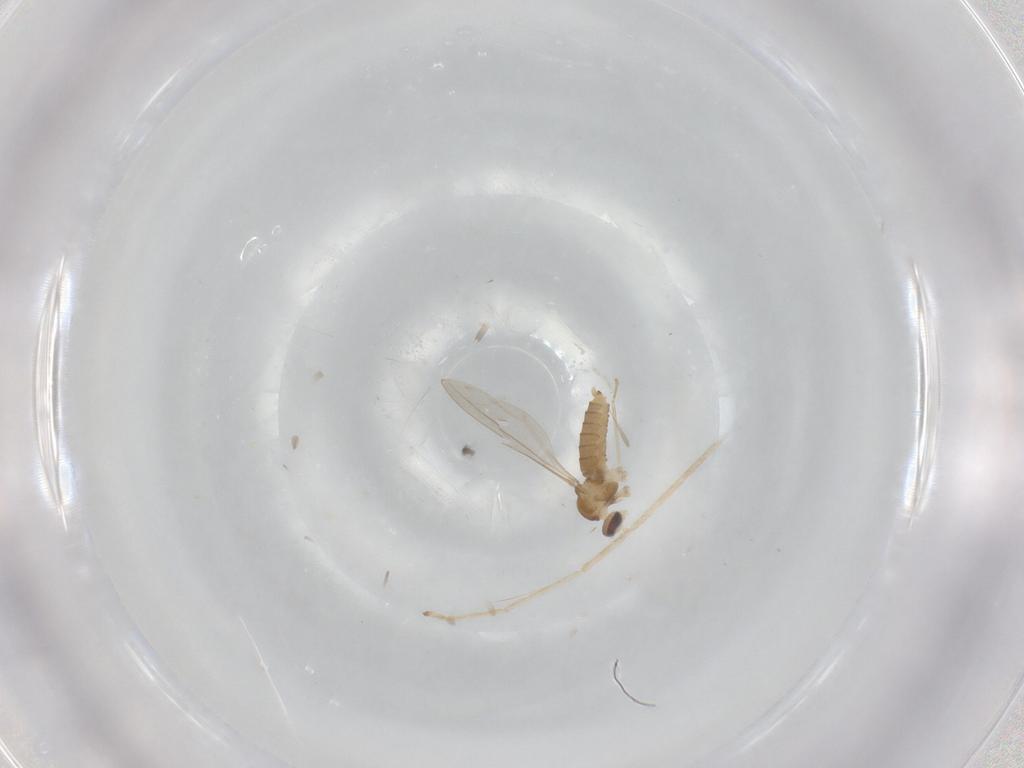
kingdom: Animalia
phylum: Arthropoda
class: Insecta
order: Diptera
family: Cecidomyiidae
